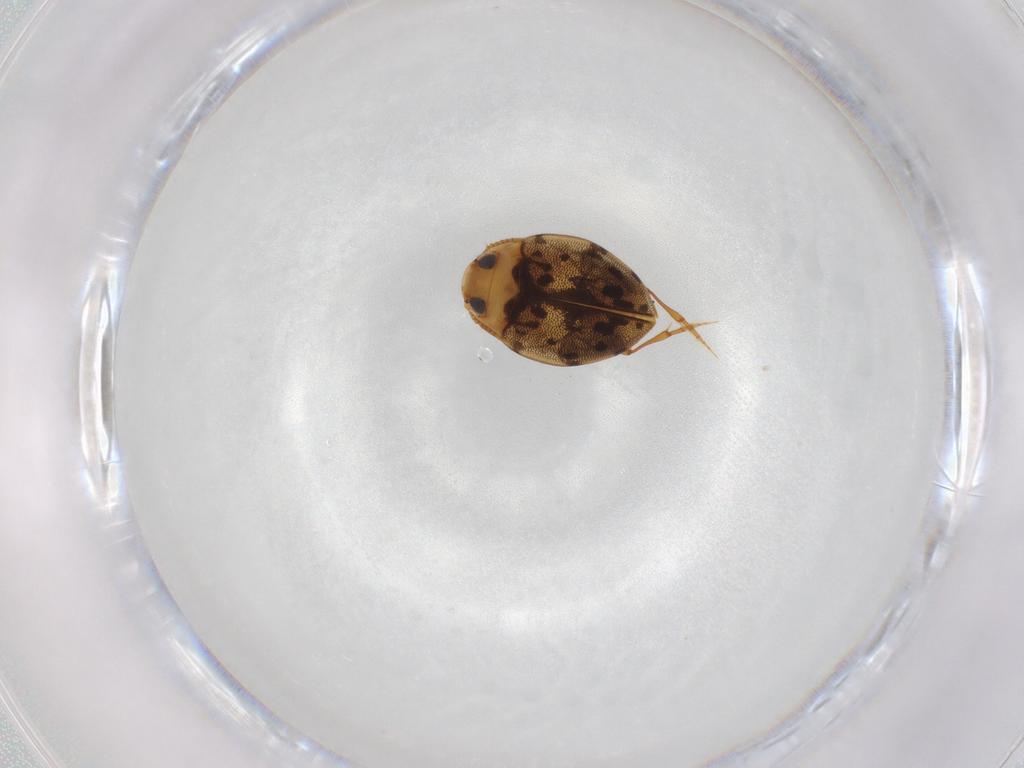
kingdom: Animalia
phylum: Arthropoda
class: Insecta
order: Coleoptera
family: Dytiscidae
